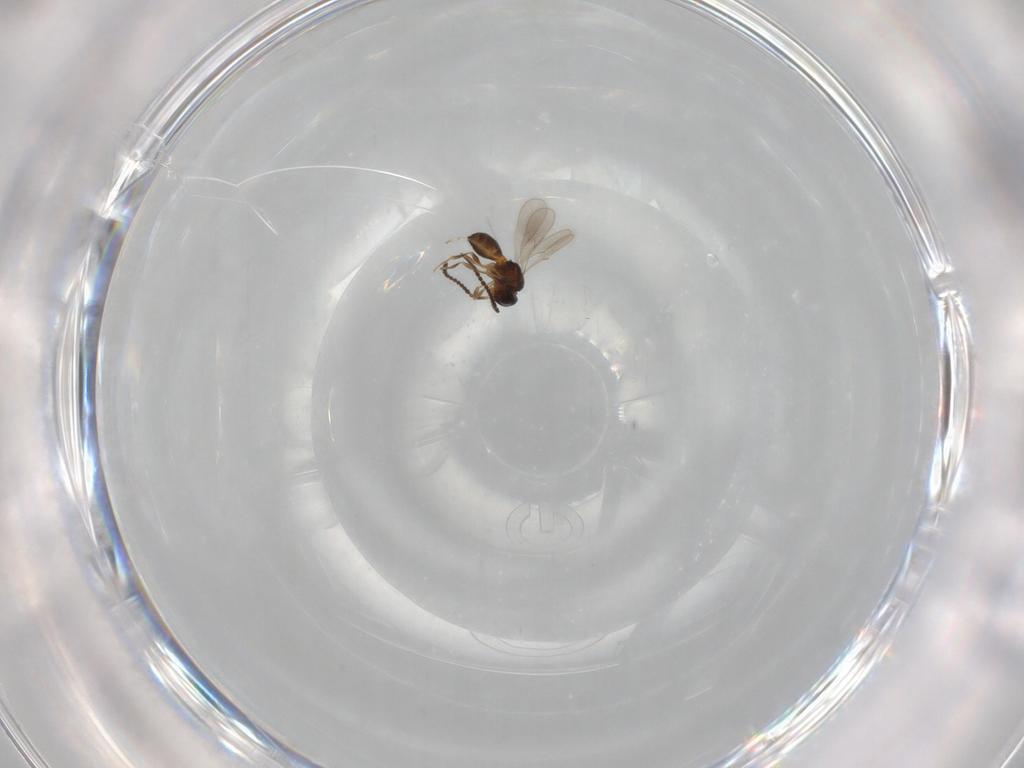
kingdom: Animalia
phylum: Arthropoda
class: Insecta
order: Hymenoptera
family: Scelionidae
